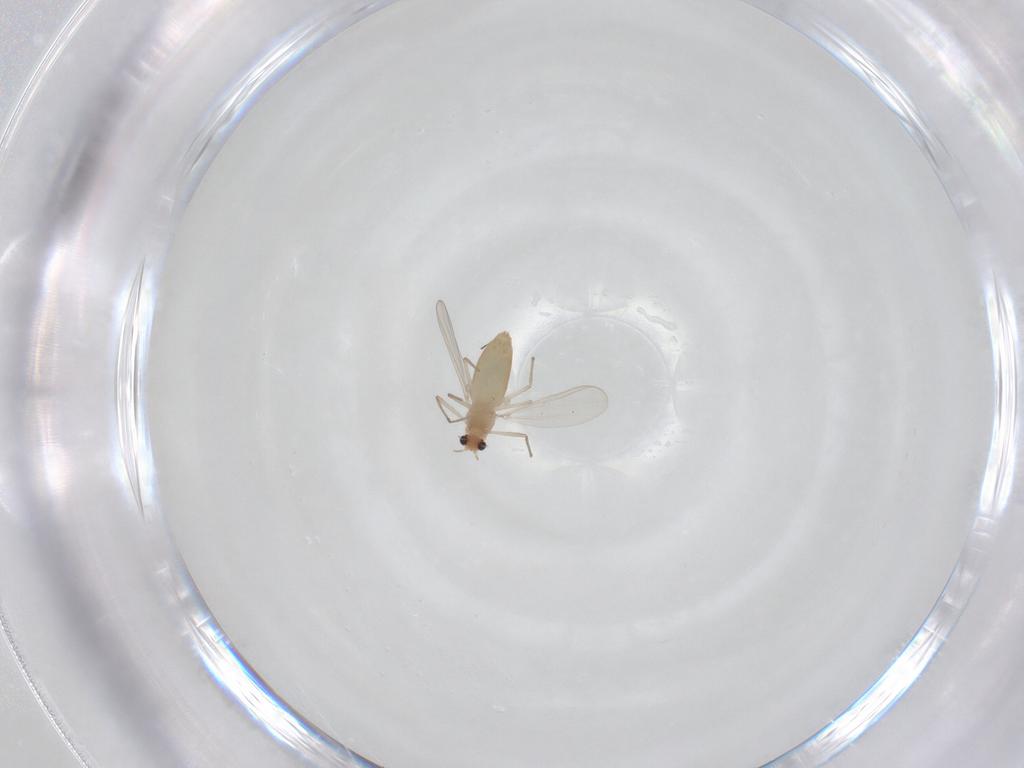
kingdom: Animalia
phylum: Arthropoda
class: Insecta
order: Diptera
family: Chironomidae
